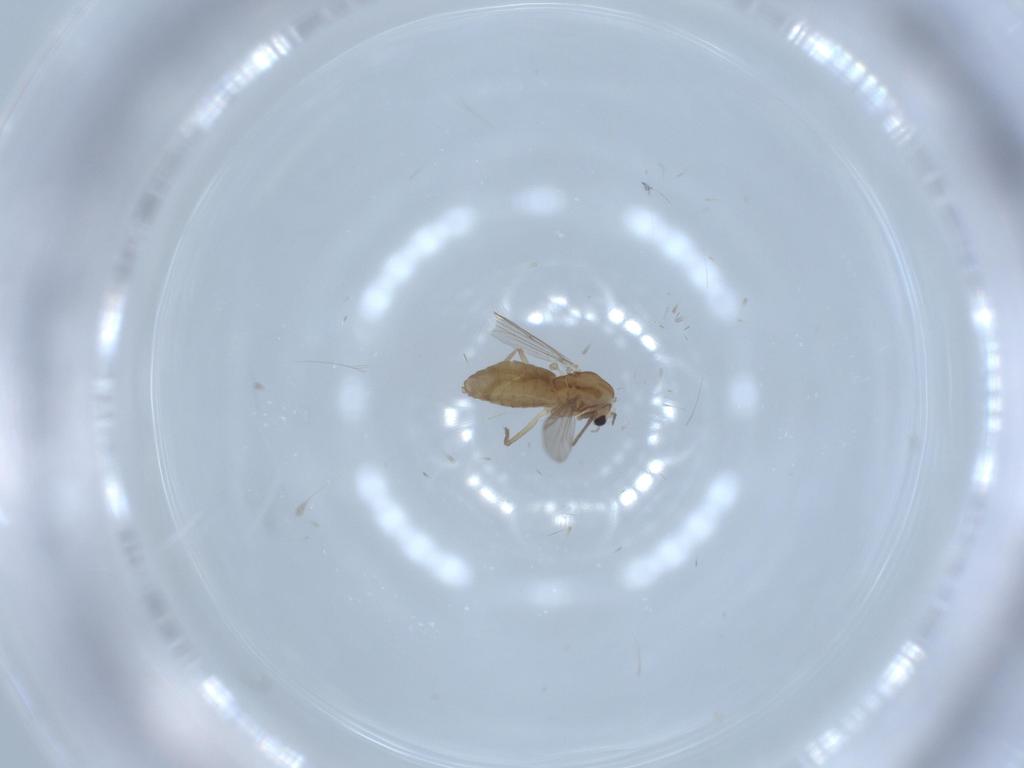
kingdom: Animalia
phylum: Arthropoda
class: Insecta
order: Diptera
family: Chironomidae
